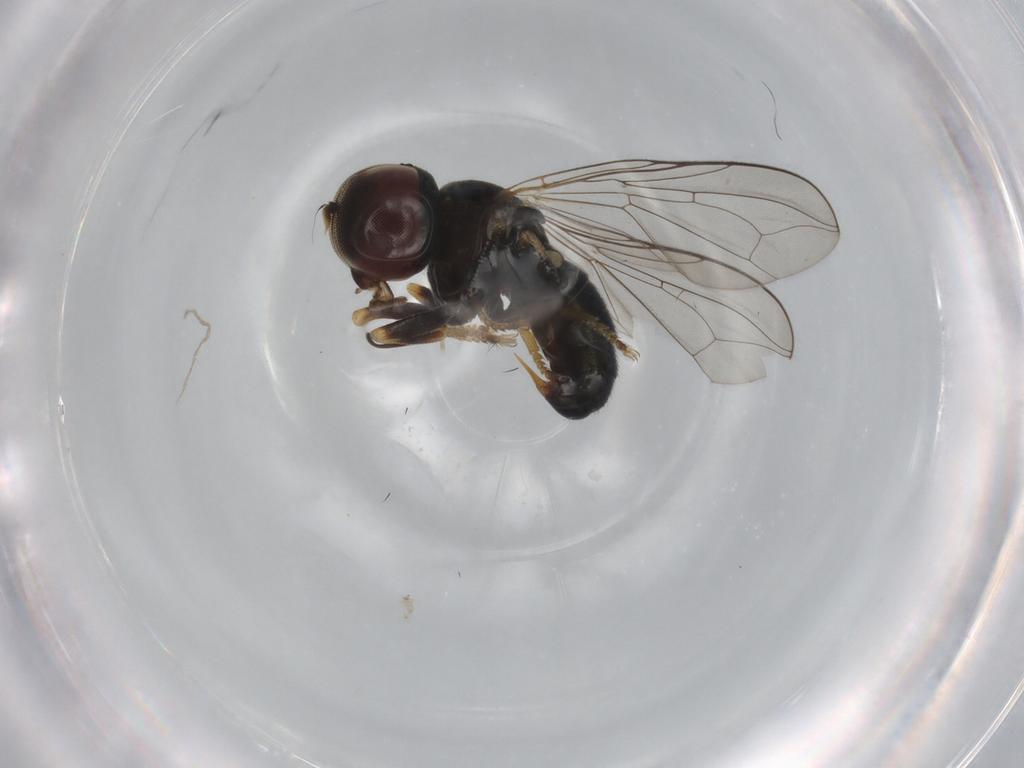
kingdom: Animalia
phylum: Arthropoda
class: Insecta
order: Diptera
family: Pipunculidae
